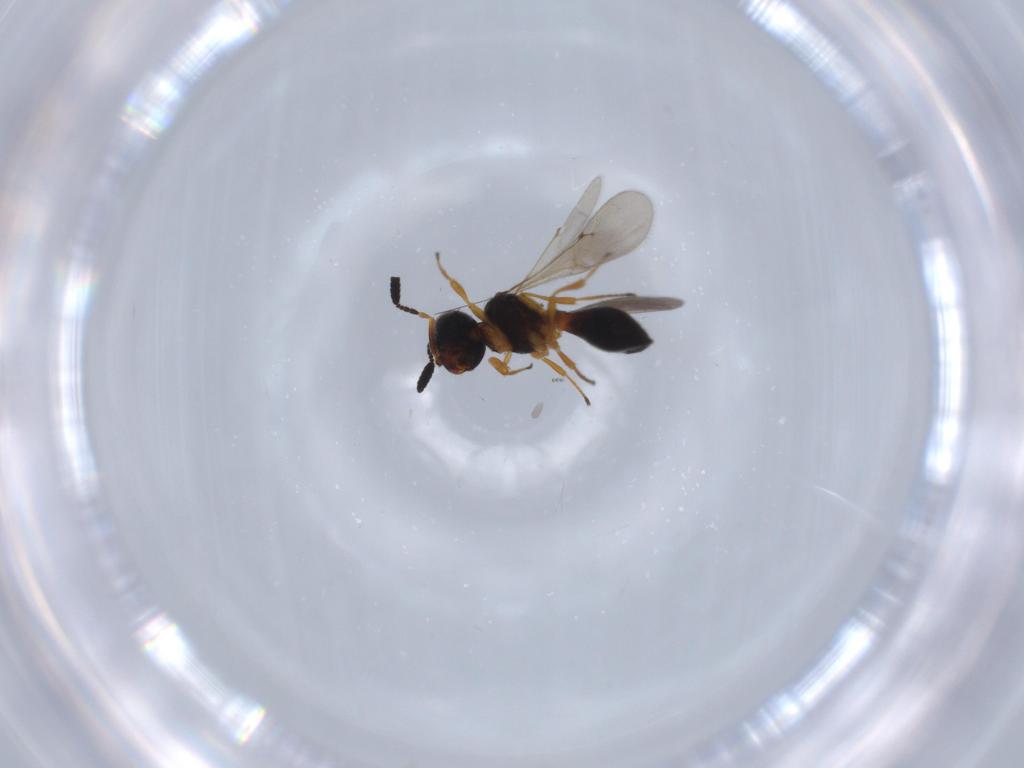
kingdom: Animalia
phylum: Arthropoda
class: Insecta
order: Hymenoptera
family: Scelionidae
